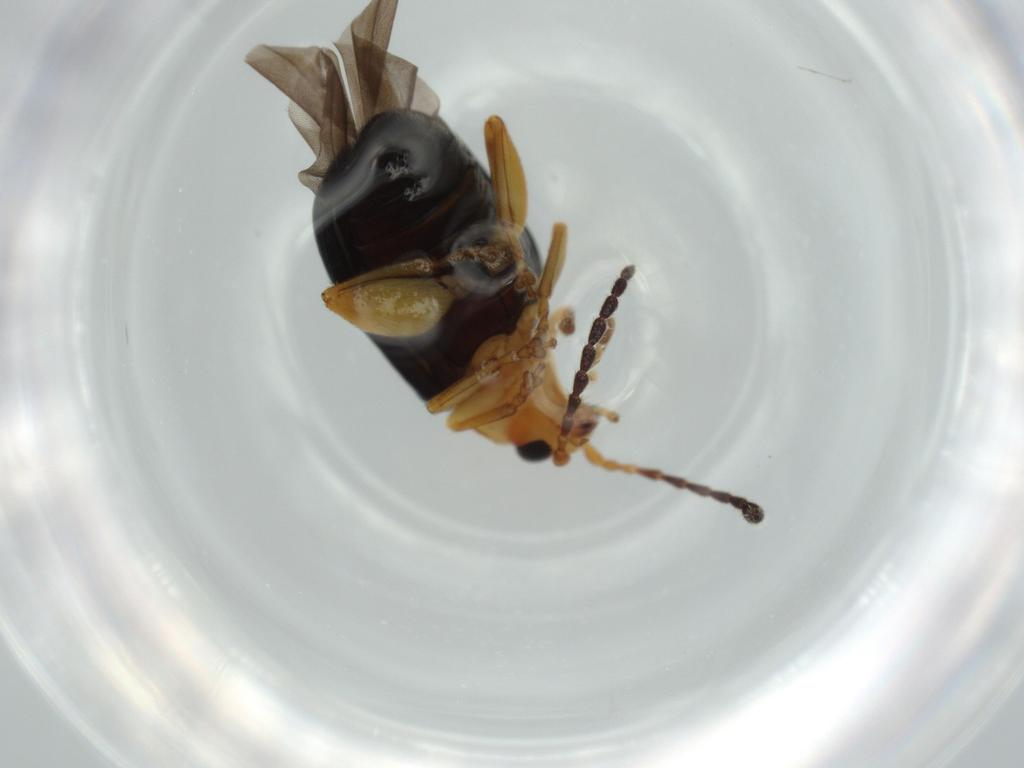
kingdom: Animalia
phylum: Arthropoda
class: Insecta
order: Coleoptera
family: Chrysomelidae
